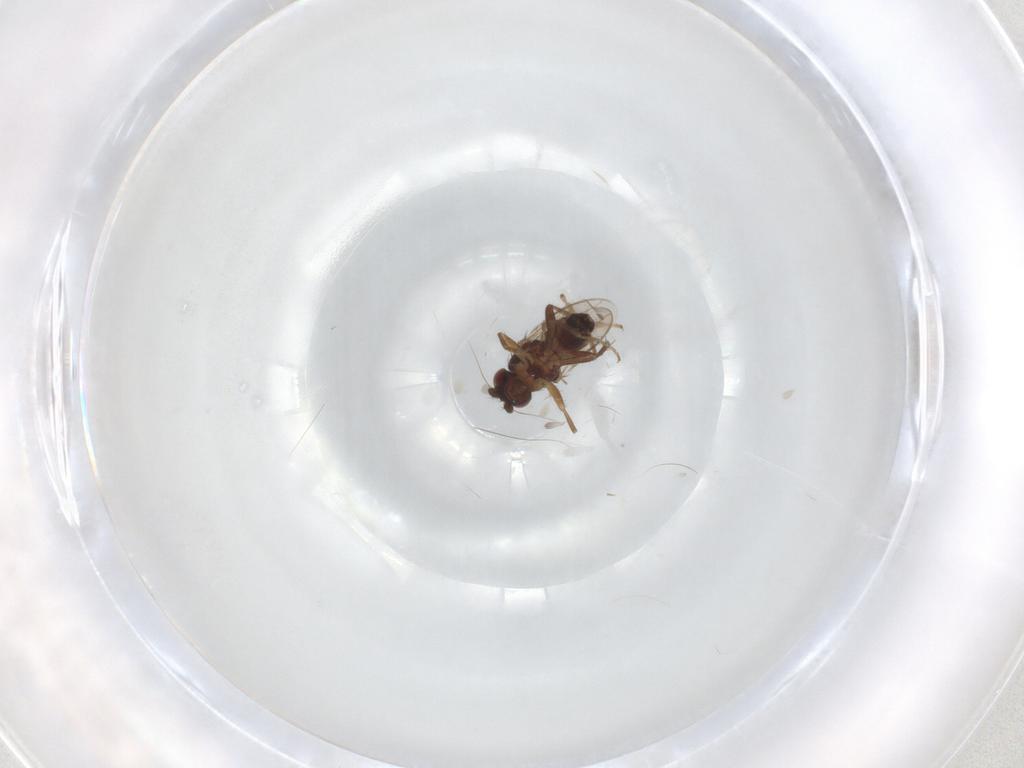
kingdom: Animalia
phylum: Arthropoda
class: Insecta
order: Diptera
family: Sphaeroceridae
